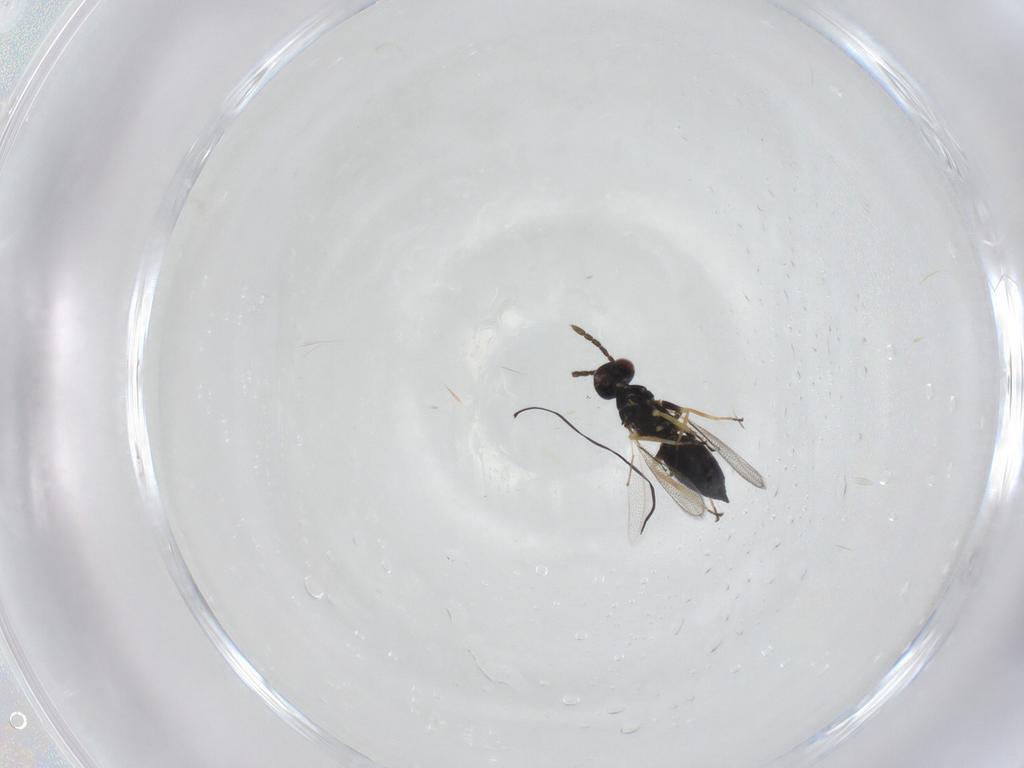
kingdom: Animalia
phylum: Arthropoda
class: Insecta
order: Hymenoptera
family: Eulophidae
